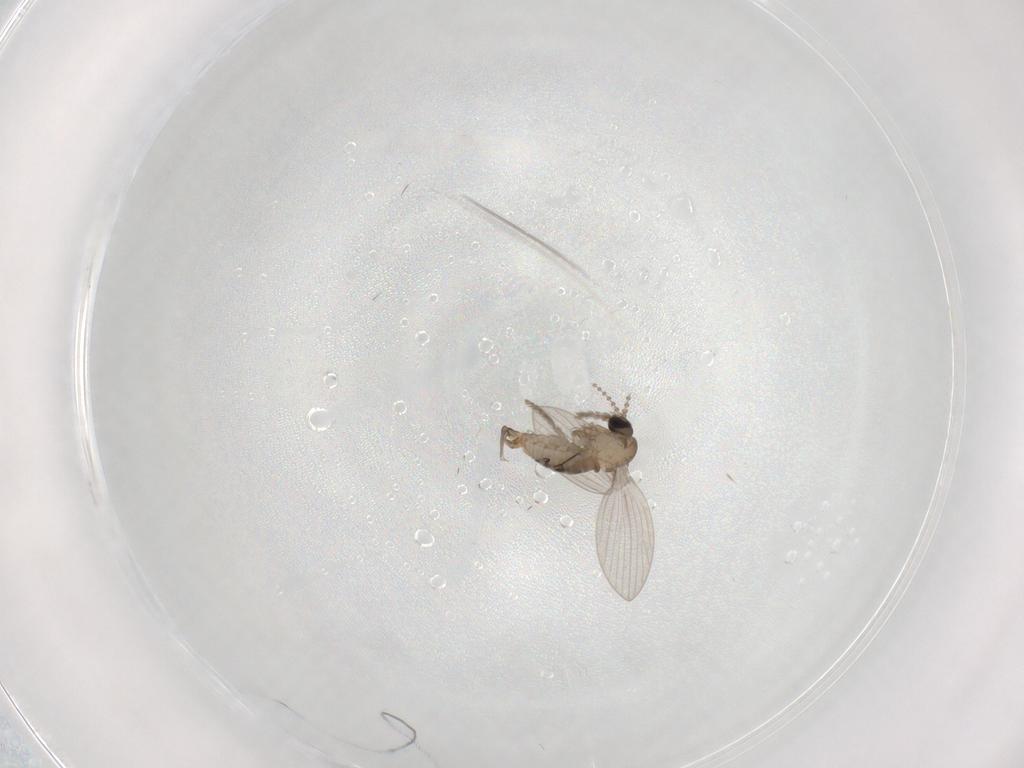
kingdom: Animalia
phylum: Arthropoda
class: Insecta
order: Diptera
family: Psychodidae
